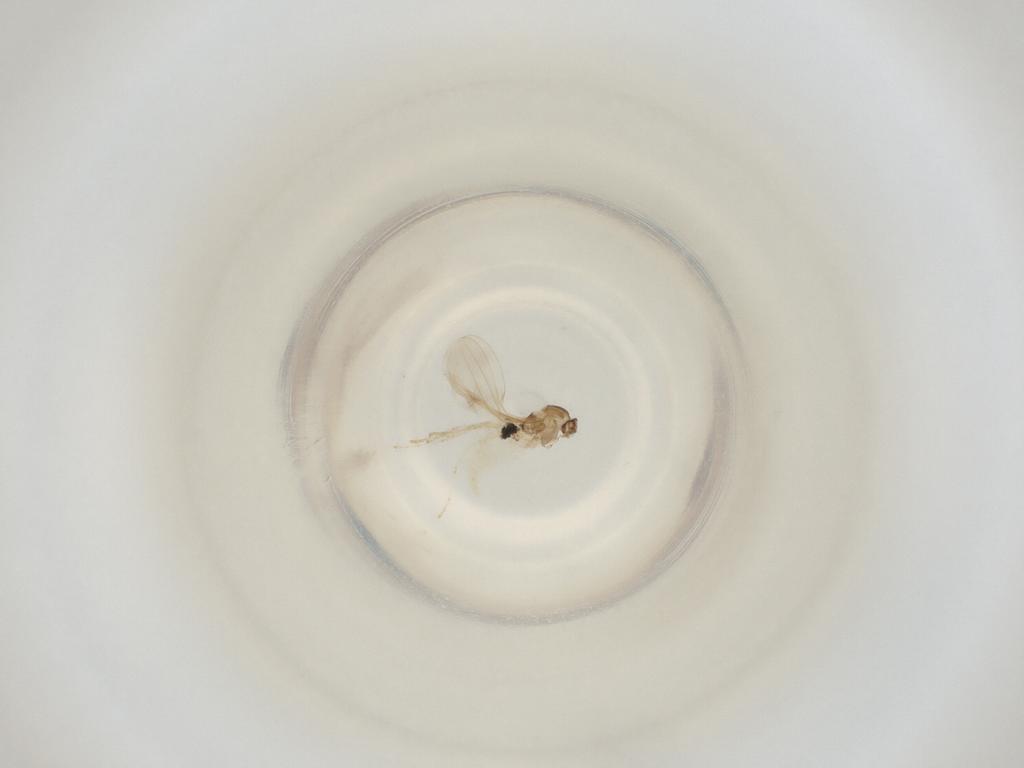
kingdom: Animalia
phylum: Arthropoda
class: Insecta
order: Diptera
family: Cecidomyiidae
